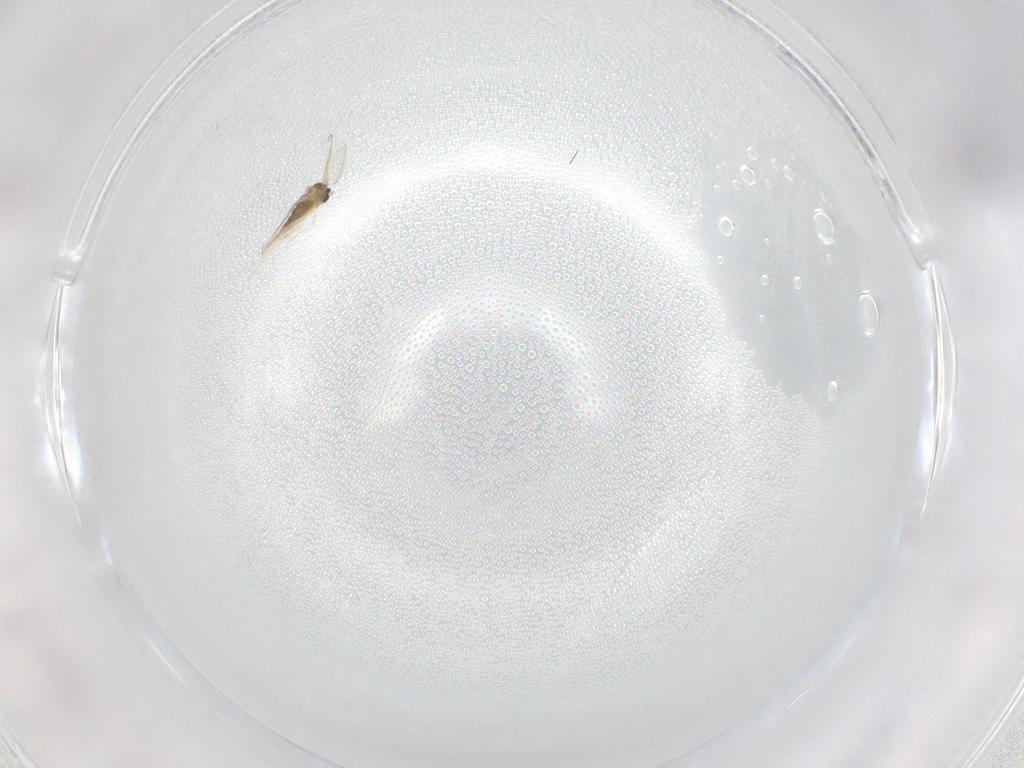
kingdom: Animalia
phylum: Arthropoda
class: Insecta
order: Diptera
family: Cecidomyiidae
